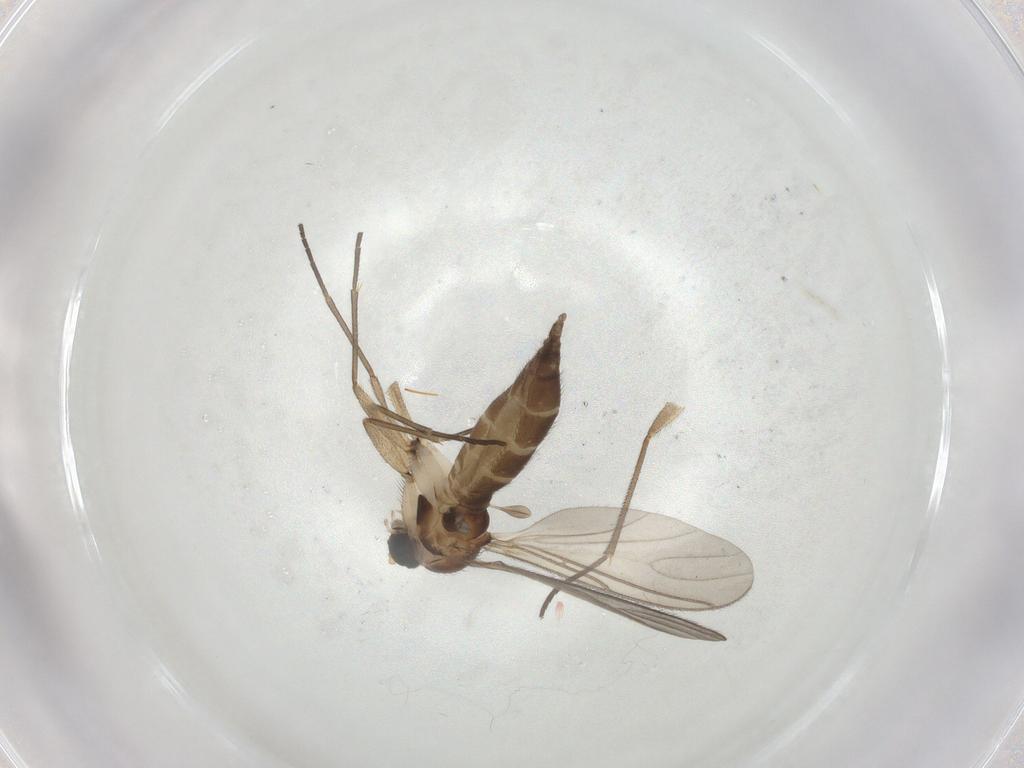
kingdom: Animalia
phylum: Arthropoda
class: Insecta
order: Diptera
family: Sciaridae
